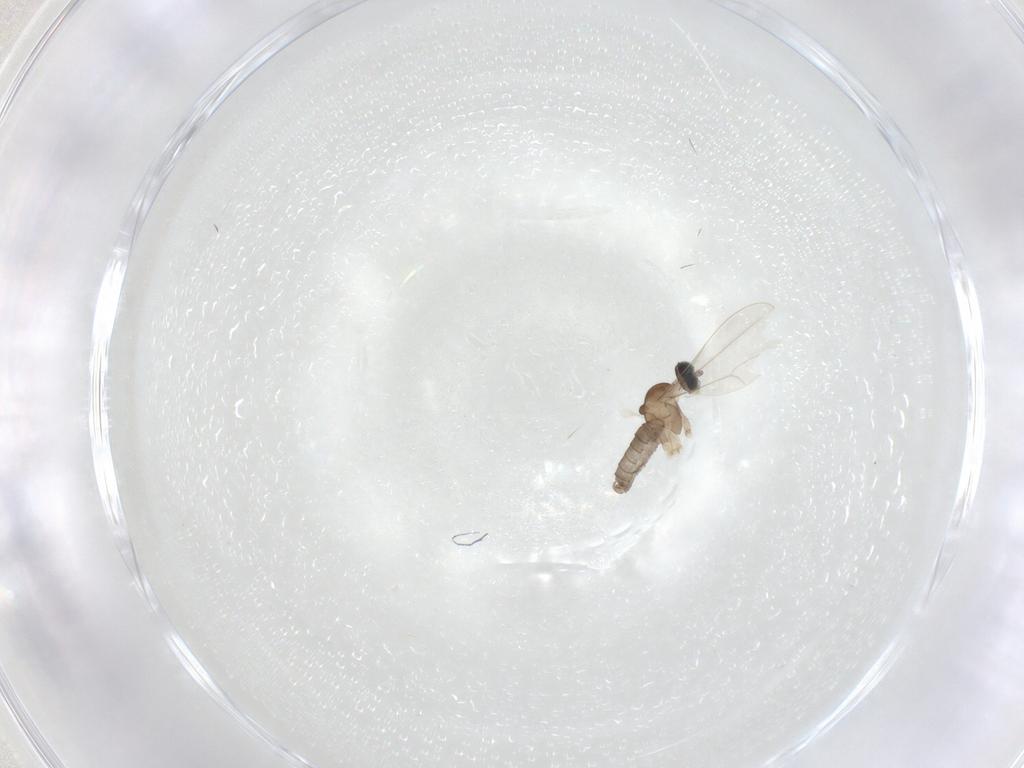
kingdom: Animalia
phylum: Arthropoda
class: Insecta
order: Diptera
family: Cecidomyiidae
